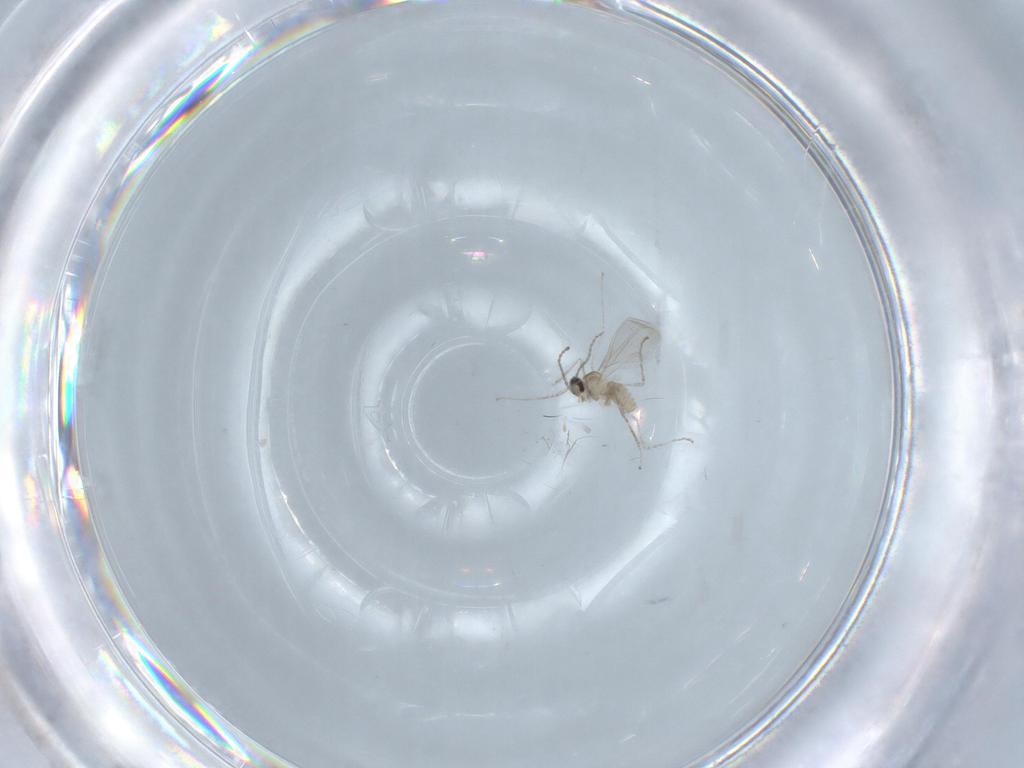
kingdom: Animalia
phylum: Arthropoda
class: Insecta
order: Diptera
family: Chironomidae
